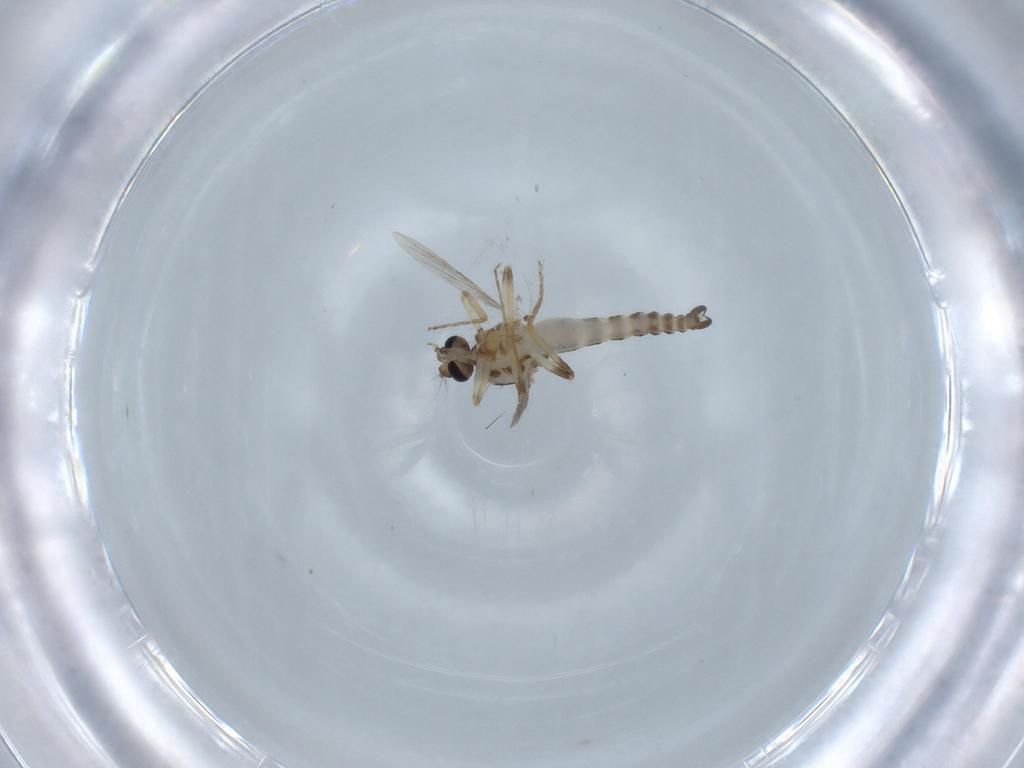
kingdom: Animalia
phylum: Arthropoda
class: Insecta
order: Diptera
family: Ceratopogonidae
